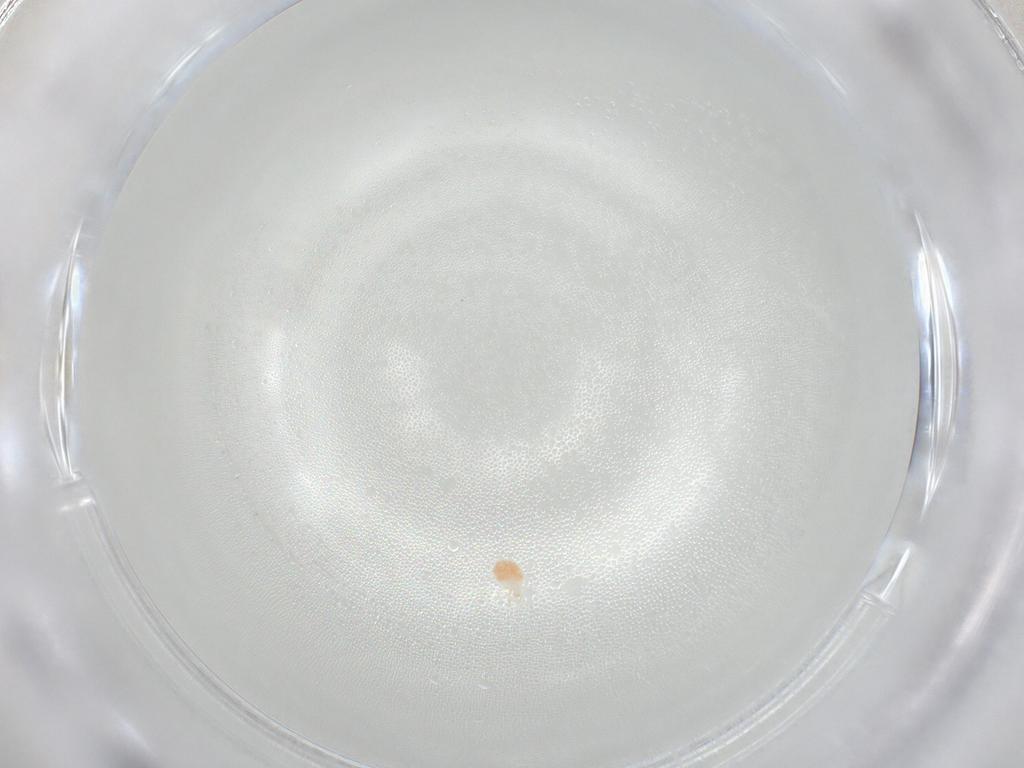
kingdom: Animalia
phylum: Arthropoda
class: Arachnida
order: Trombidiformes
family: Erythraeidae
